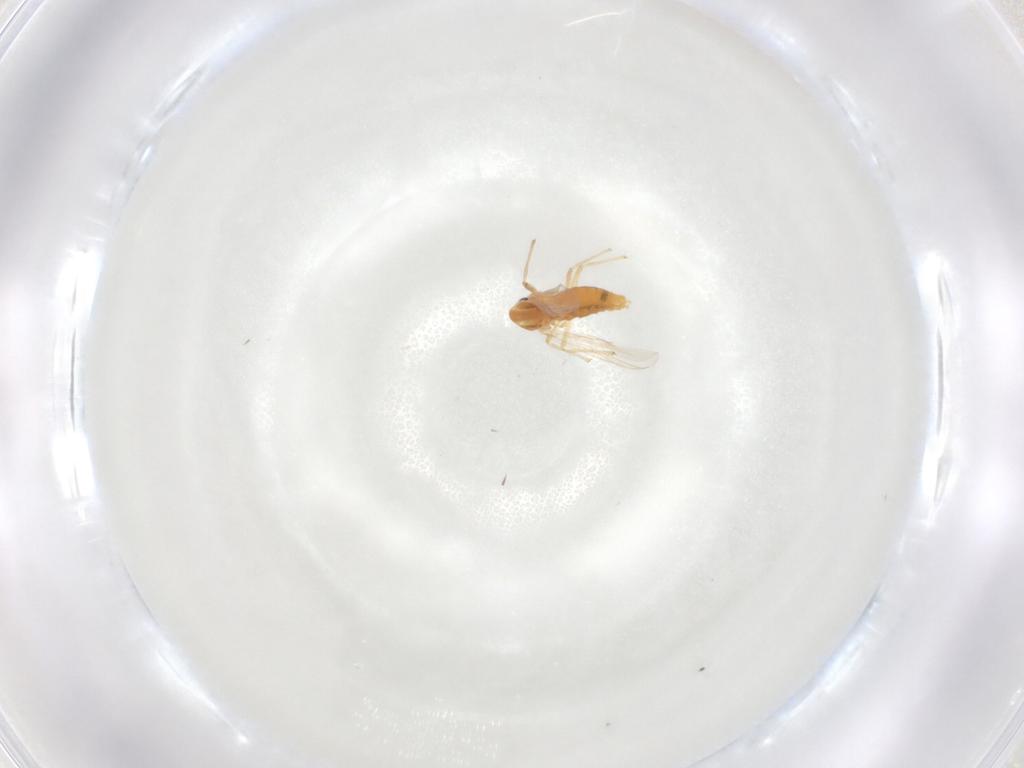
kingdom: Animalia
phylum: Arthropoda
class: Insecta
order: Diptera
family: Chironomidae
